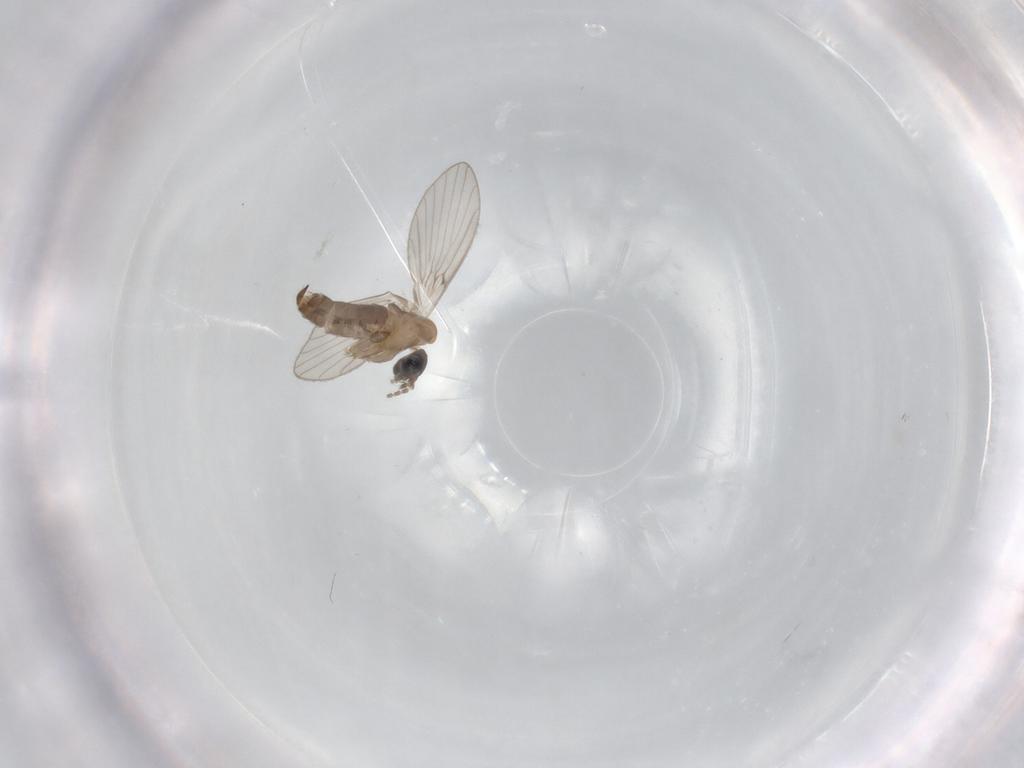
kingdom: Animalia
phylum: Arthropoda
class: Insecta
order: Diptera
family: Psychodidae
